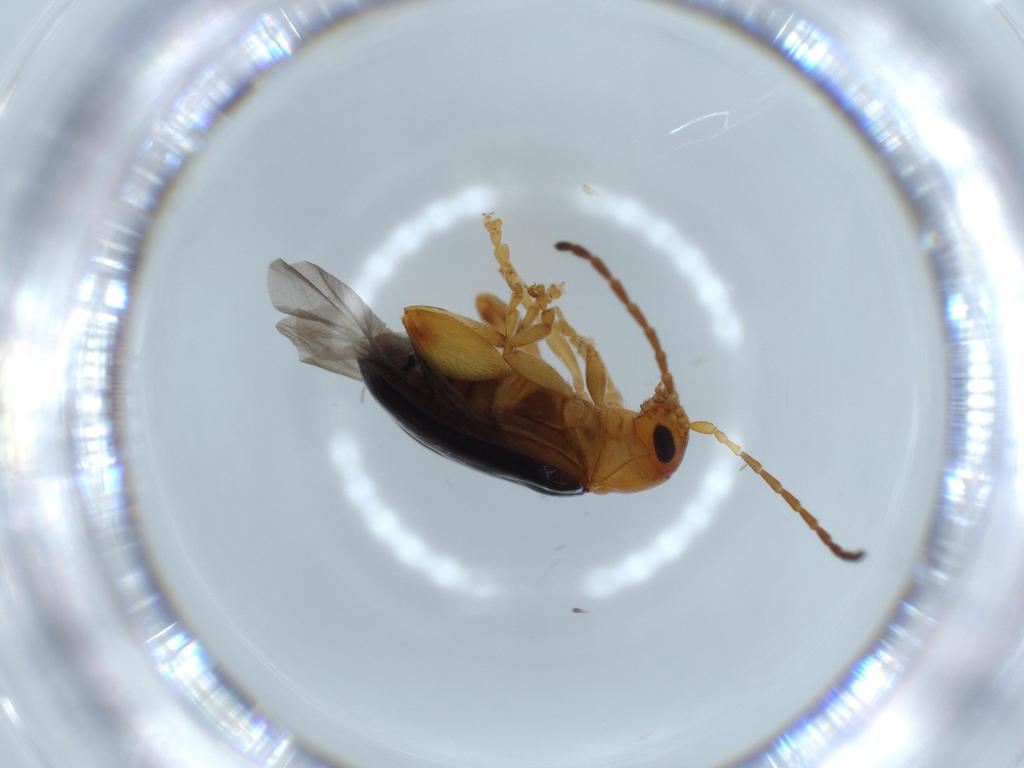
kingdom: Animalia
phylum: Arthropoda
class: Insecta
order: Coleoptera
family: Chrysomelidae
